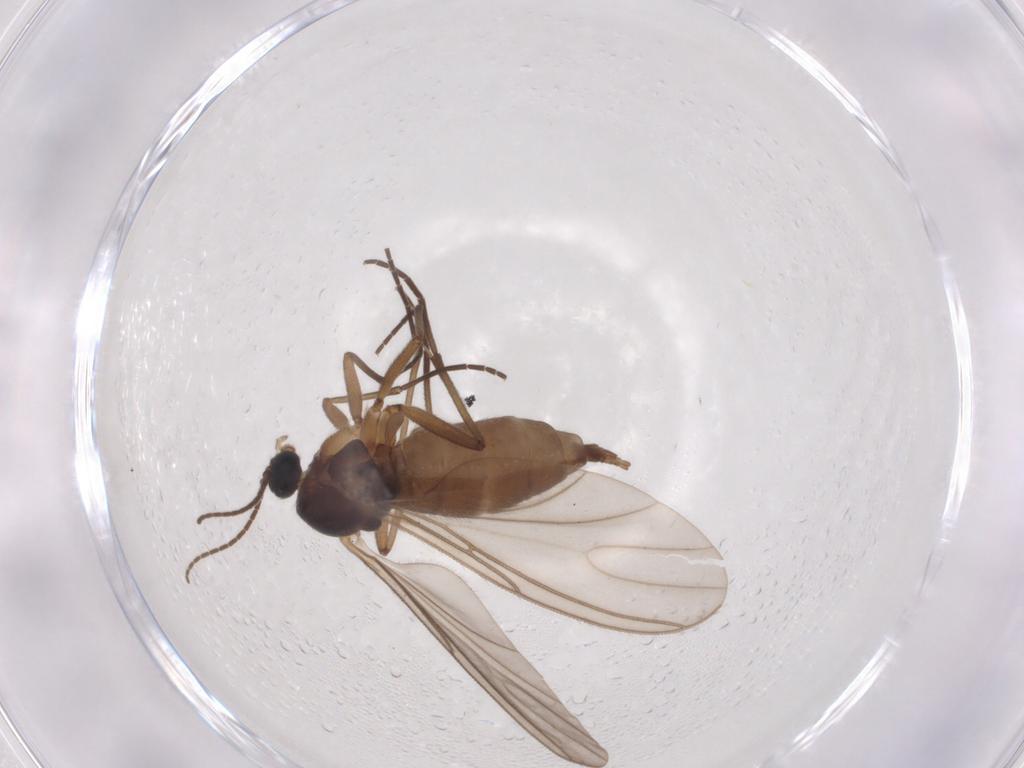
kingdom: Animalia
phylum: Arthropoda
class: Insecta
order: Diptera
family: Sciaridae
